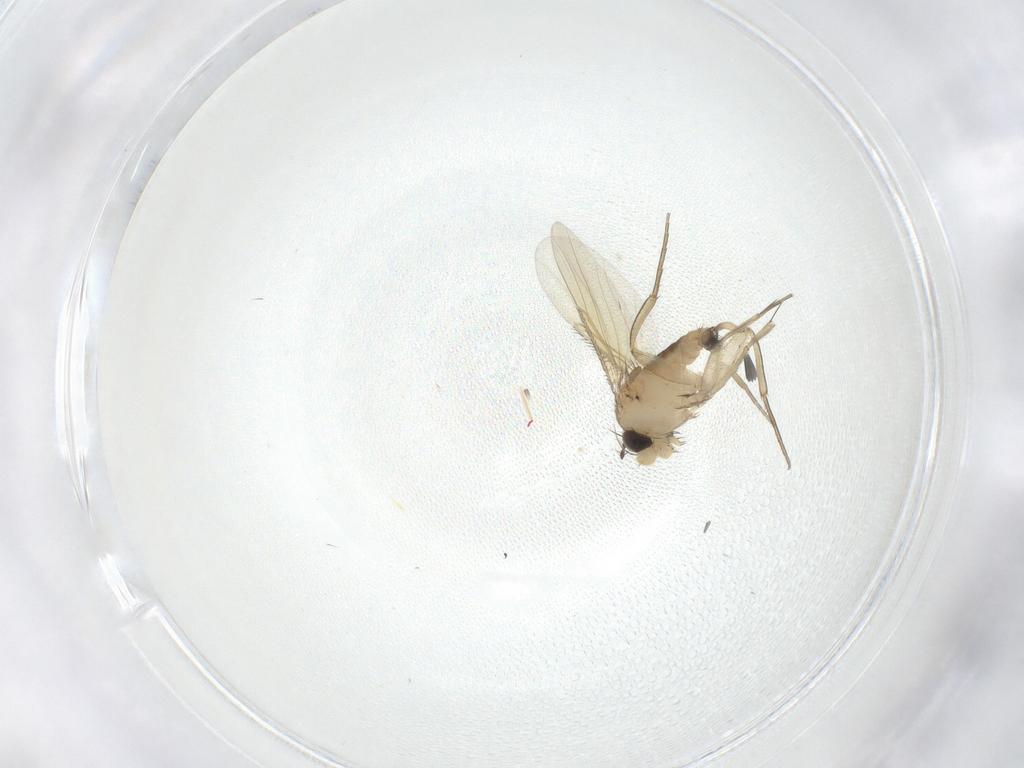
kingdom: Animalia
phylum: Arthropoda
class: Insecta
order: Diptera
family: Phoridae
